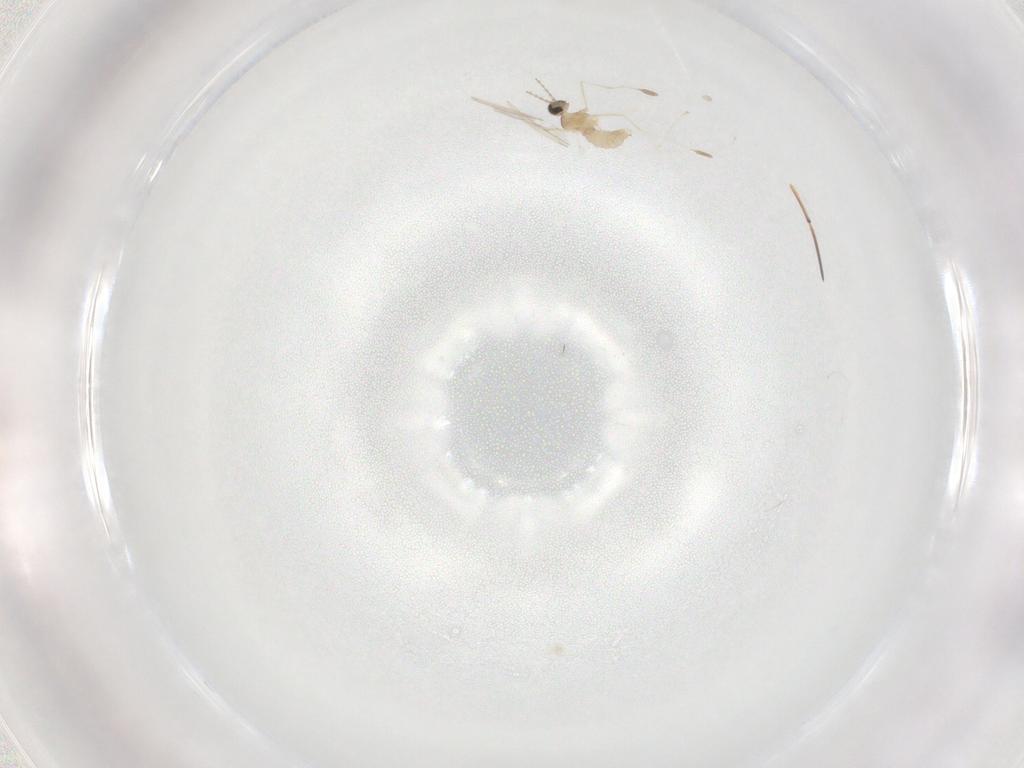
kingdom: Animalia
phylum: Arthropoda
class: Insecta
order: Diptera
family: Cecidomyiidae
